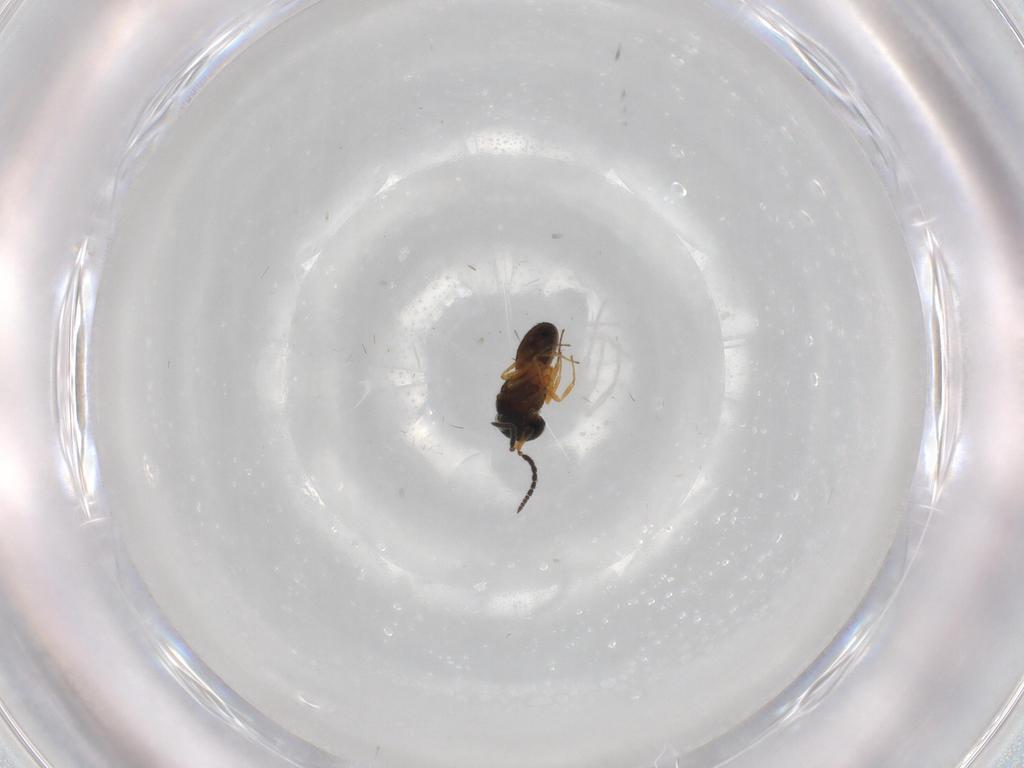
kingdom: Animalia
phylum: Arthropoda
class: Insecta
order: Hymenoptera
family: Scelionidae
